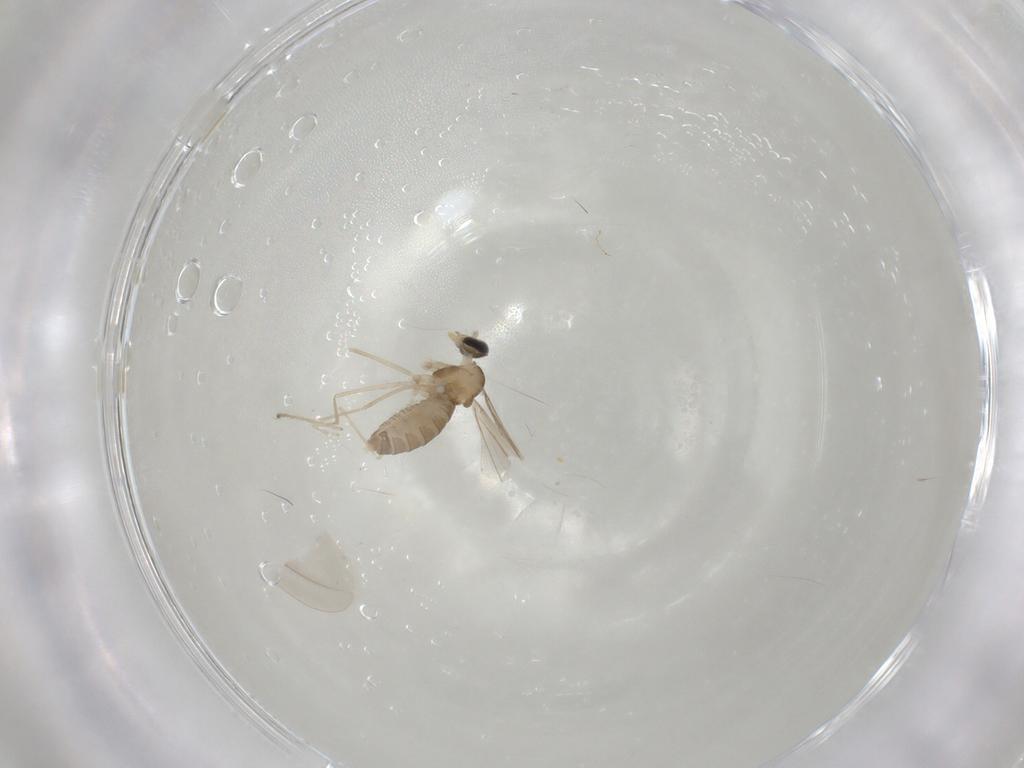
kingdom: Animalia
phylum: Arthropoda
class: Insecta
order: Diptera
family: Cecidomyiidae
